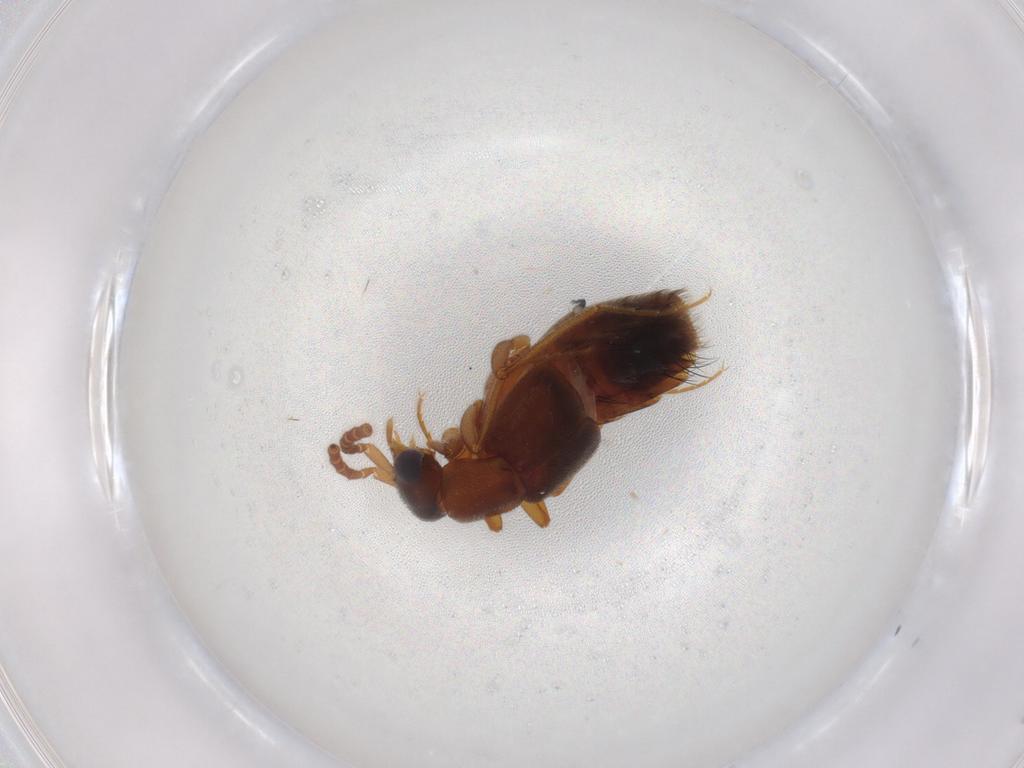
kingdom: Animalia
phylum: Arthropoda
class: Insecta
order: Coleoptera
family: Staphylinidae
